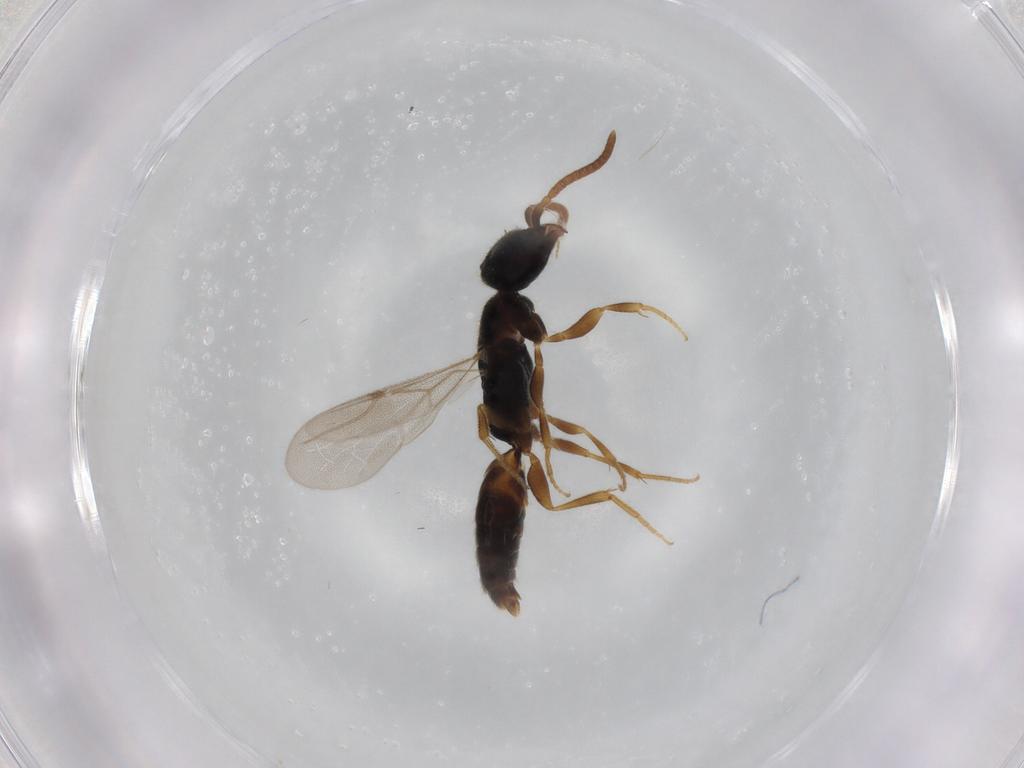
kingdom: Animalia
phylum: Arthropoda
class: Insecta
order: Hymenoptera
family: Bethylidae
